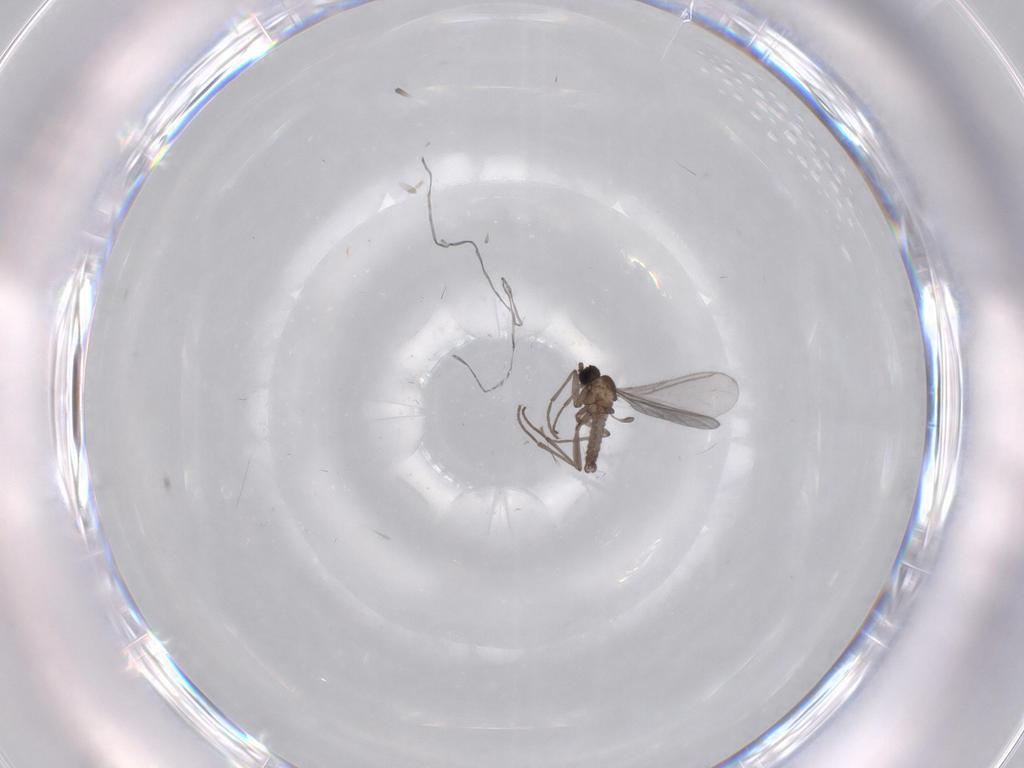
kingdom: Animalia
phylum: Arthropoda
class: Insecta
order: Diptera
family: Sciaridae
